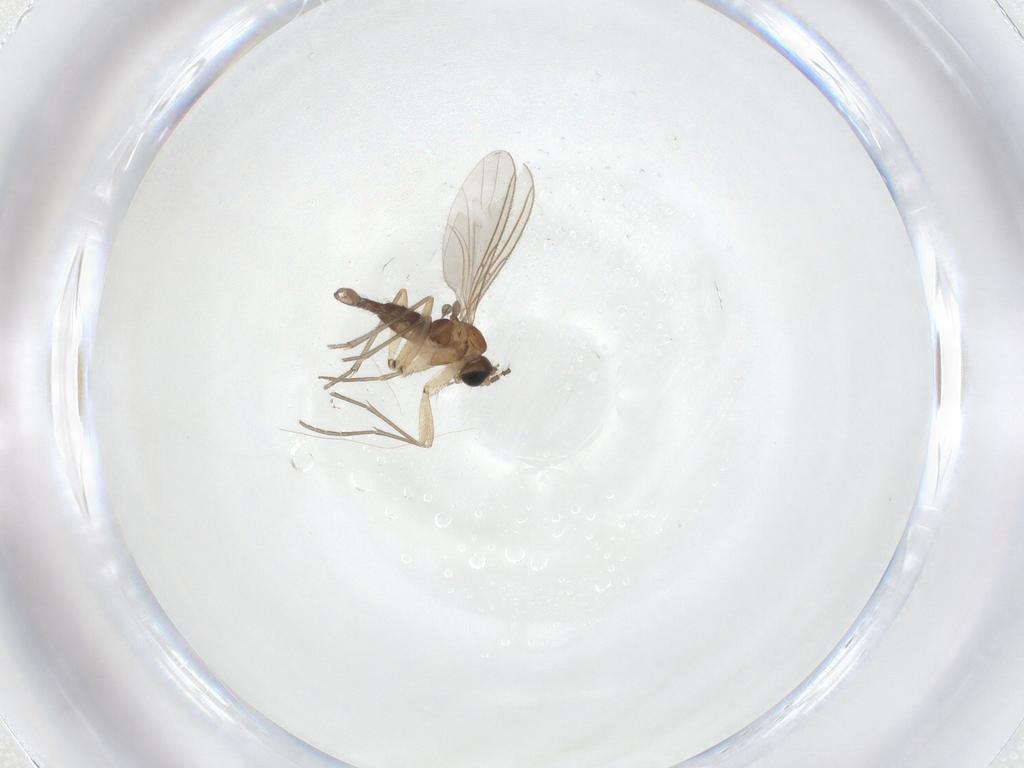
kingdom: Animalia
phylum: Arthropoda
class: Insecta
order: Diptera
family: Sciaridae
